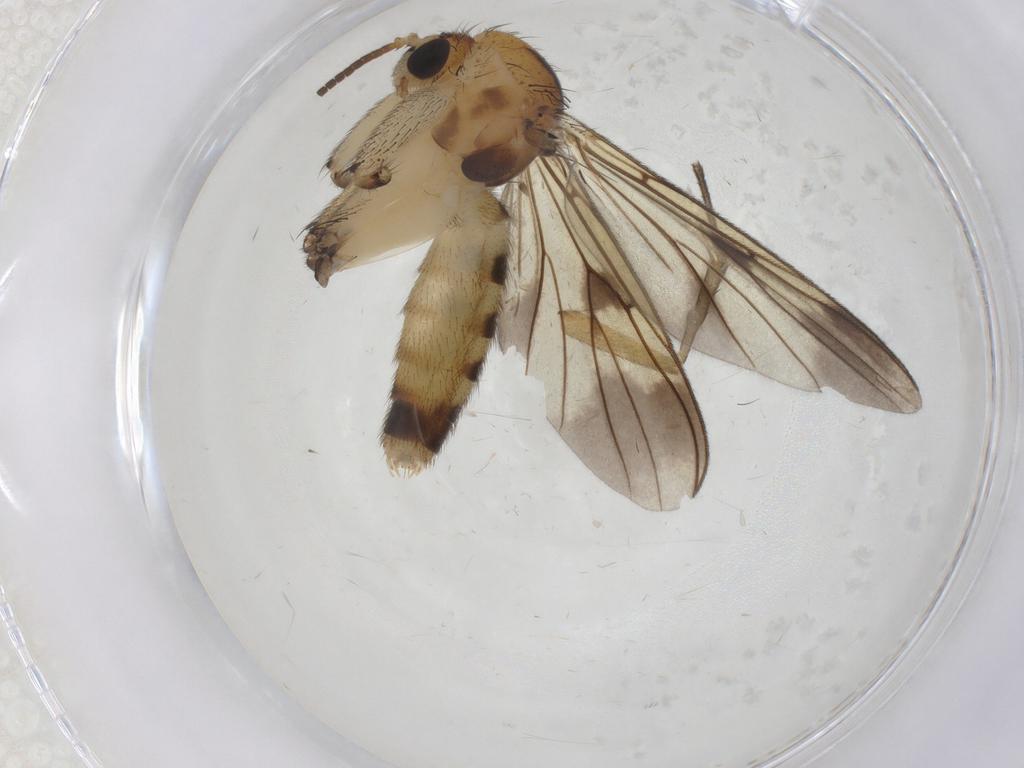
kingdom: Animalia
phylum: Arthropoda
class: Insecta
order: Diptera
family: Mycetophilidae
